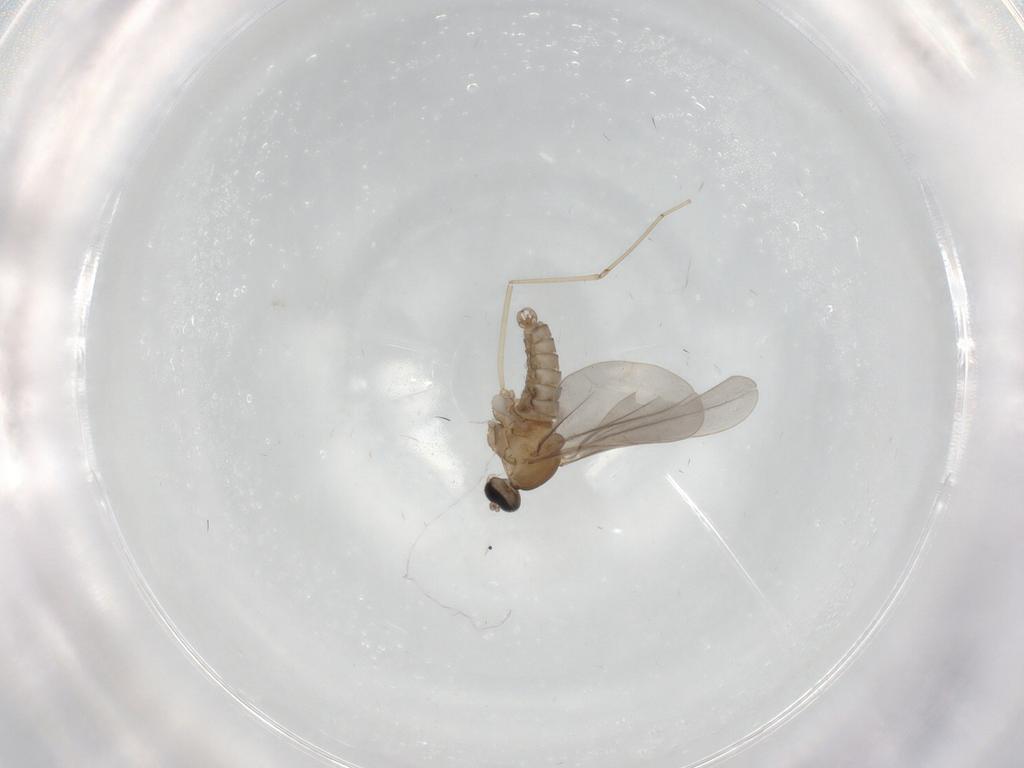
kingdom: Animalia
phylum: Arthropoda
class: Insecta
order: Diptera
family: Cecidomyiidae
